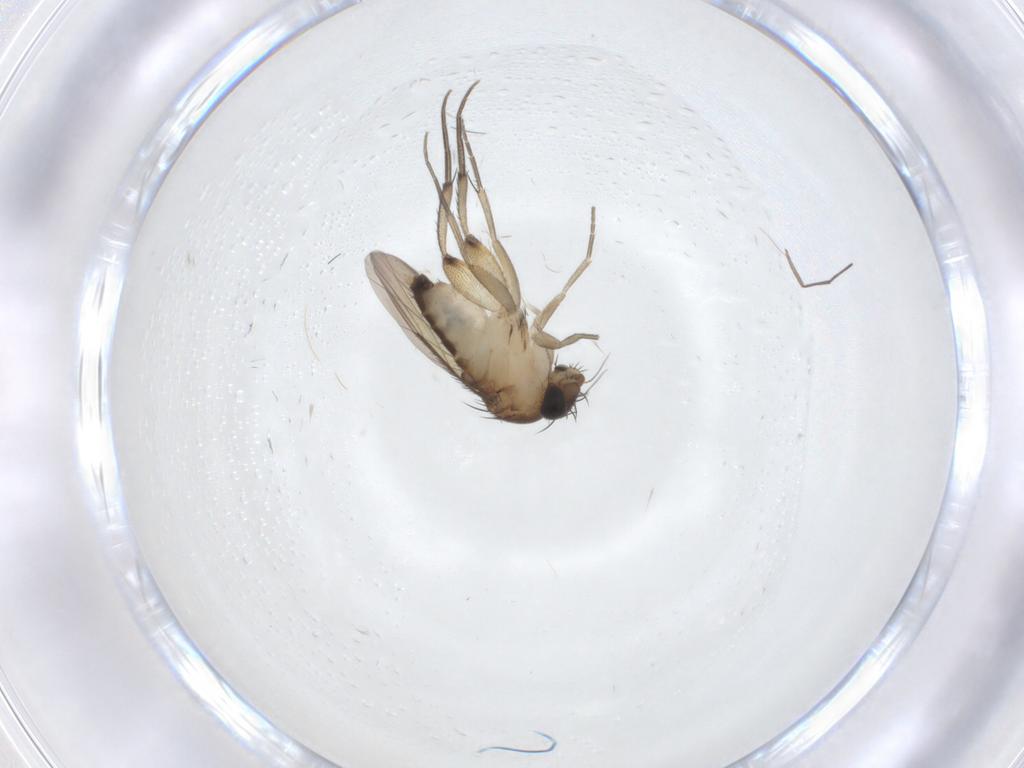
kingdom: Animalia
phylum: Arthropoda
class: Insecta
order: Diptera
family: Phoridae
